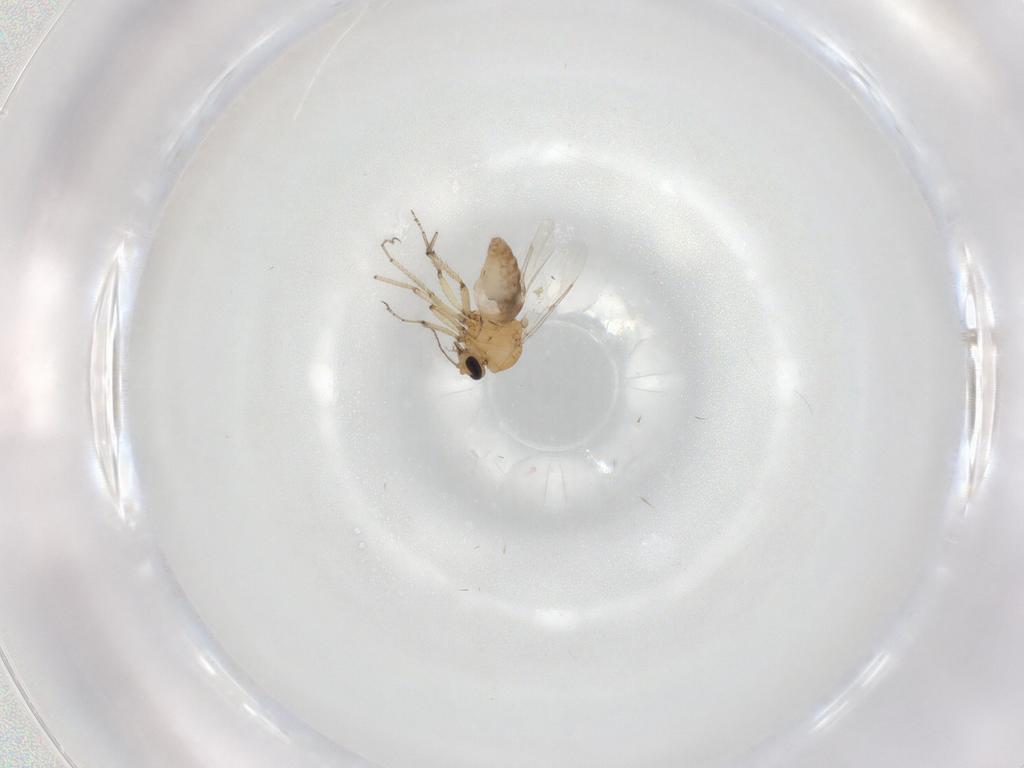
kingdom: Animalia
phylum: Arthropoda
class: Insecta
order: Diptera
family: Ceratopogonidae
